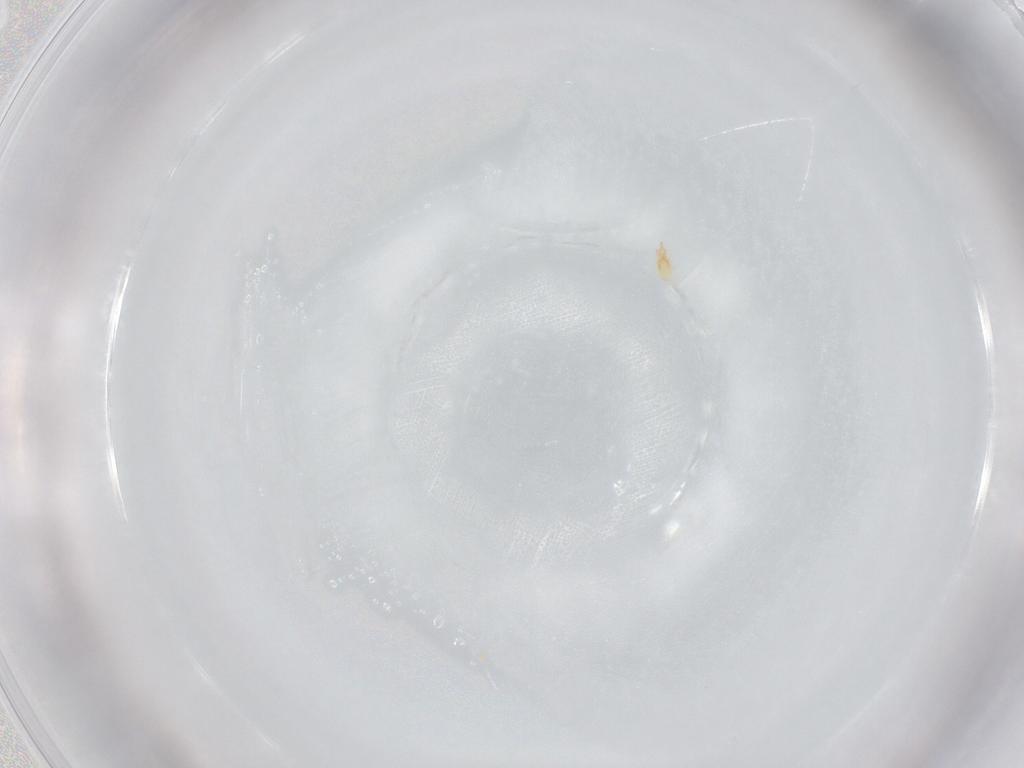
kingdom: Animalia
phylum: Arthropoda
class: Arachnida
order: Trombidiformes
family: Cunaxidae
